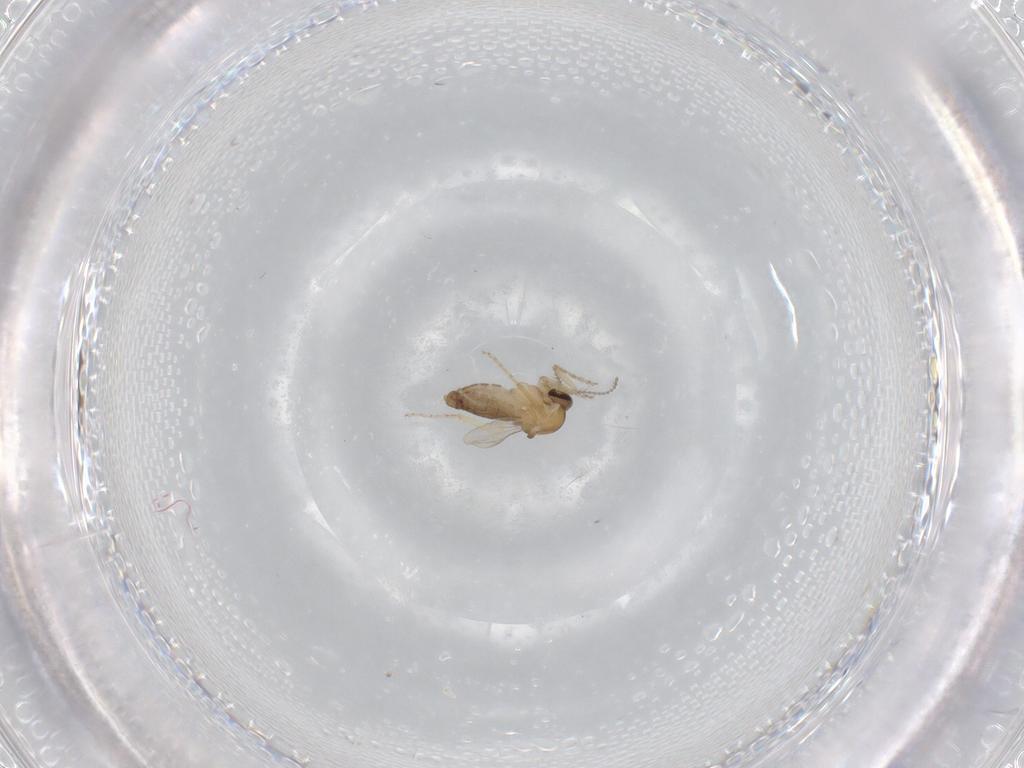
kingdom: Animalia
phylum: Arthropoda
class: Insecta
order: Diptera
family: Ceratopogonidae
